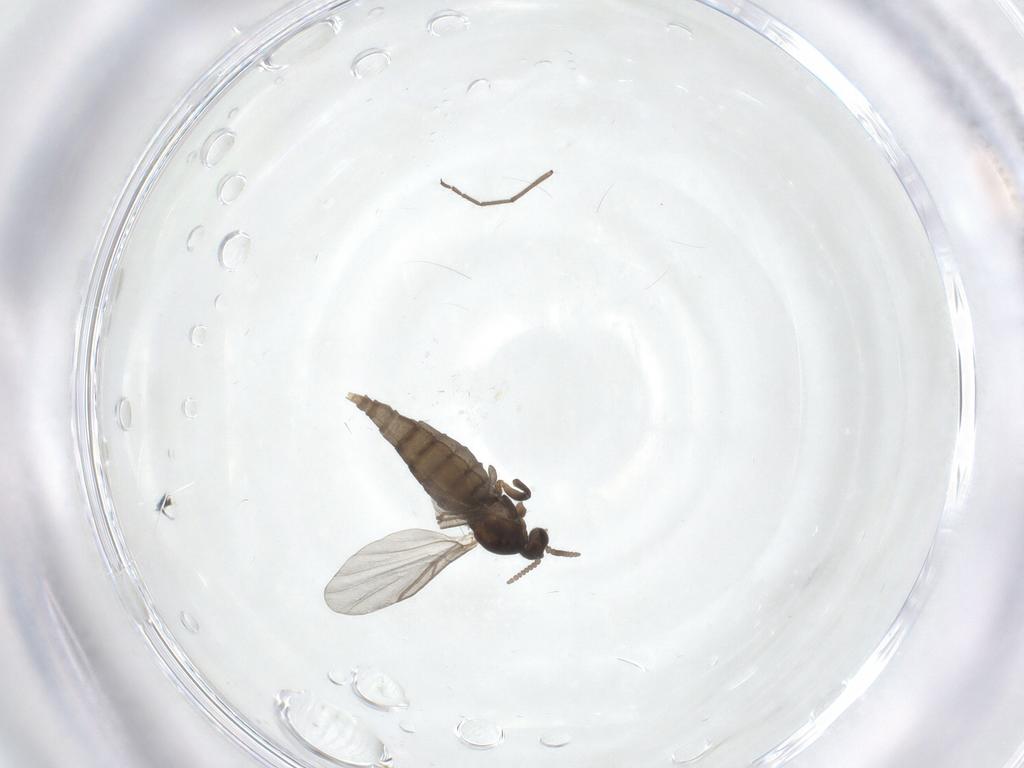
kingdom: Animalia
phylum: Arthropoda
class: Insecta
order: Diptera
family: Cecidomyiidae
